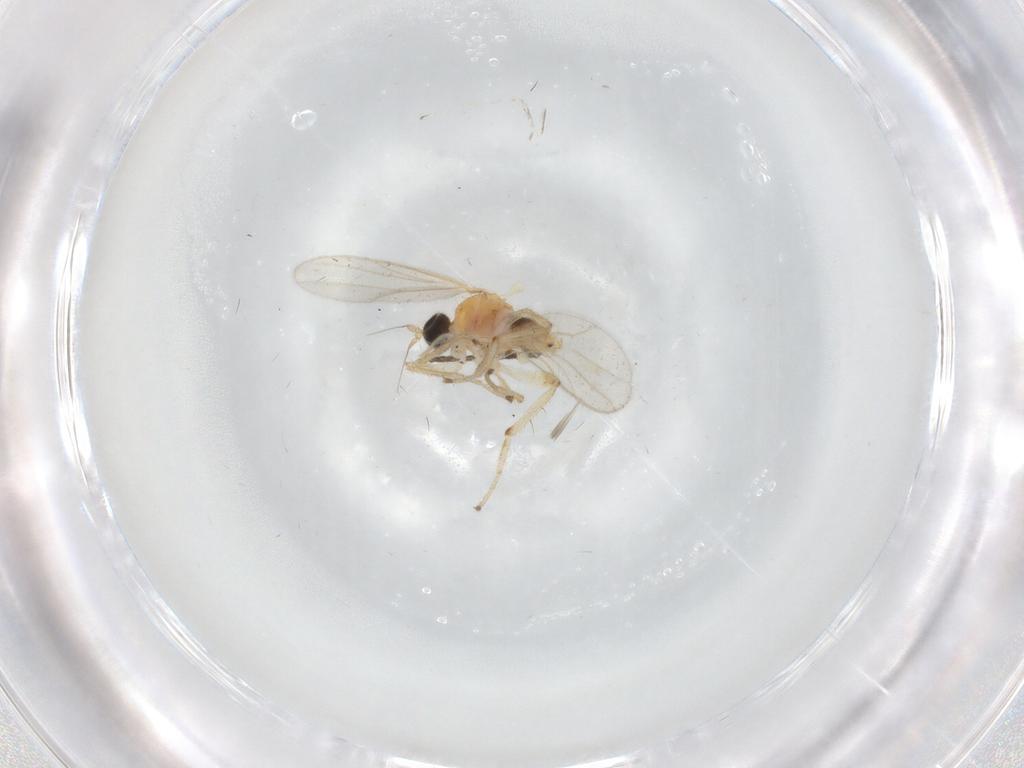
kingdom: Animalia
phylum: Arthropoda
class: Insecta
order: Diptera
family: Hybotidae
